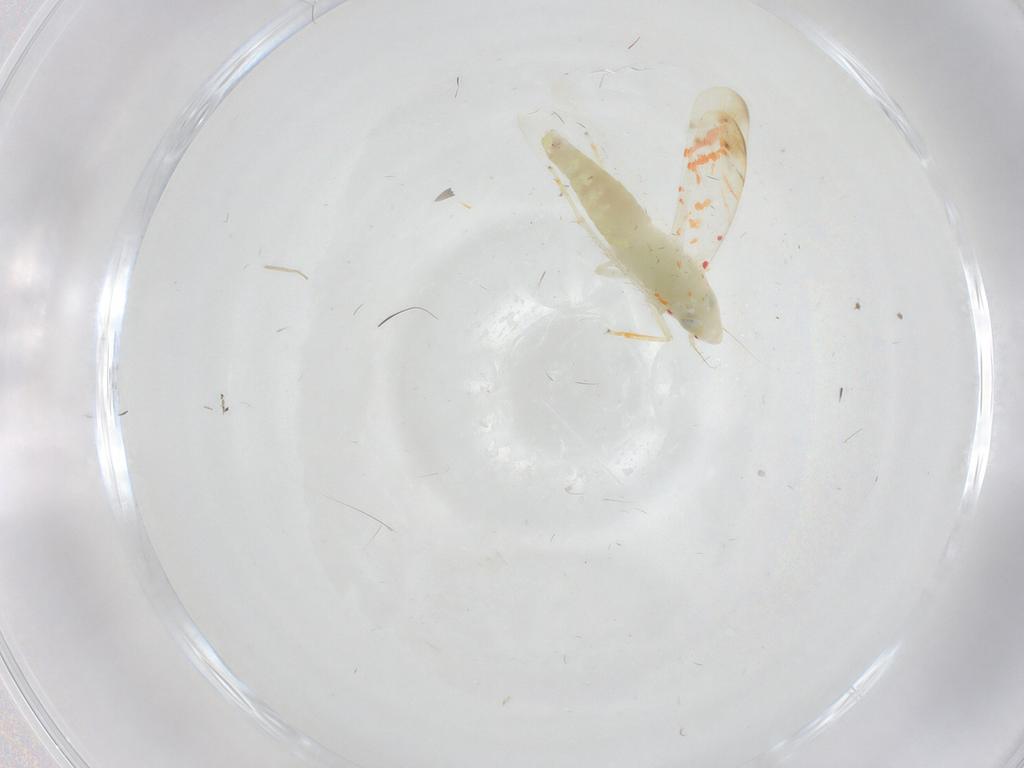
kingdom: Animalia
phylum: Arthropoda
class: Insecta
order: Hemiptera
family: Cicadellidae
